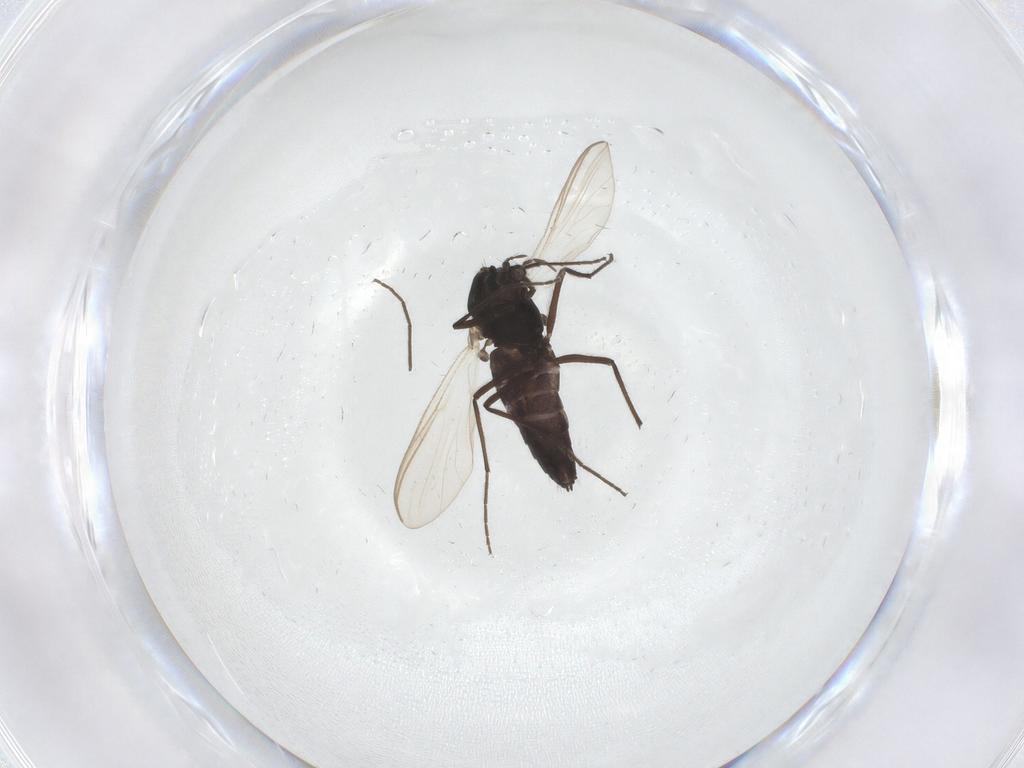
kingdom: Animalia
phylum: Arthropoda
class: Insecta
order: Diptera
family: Chironomidae
